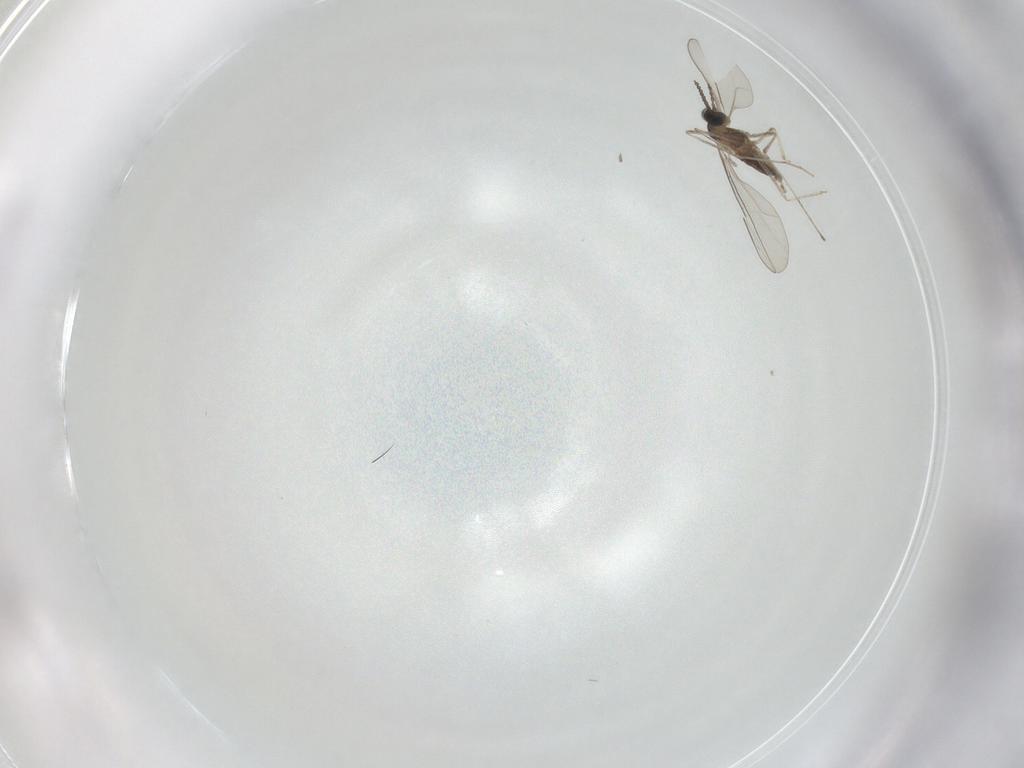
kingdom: Animalia
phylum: Arthropoda
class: Insecta
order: Diptera
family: Cecidomyiidae
